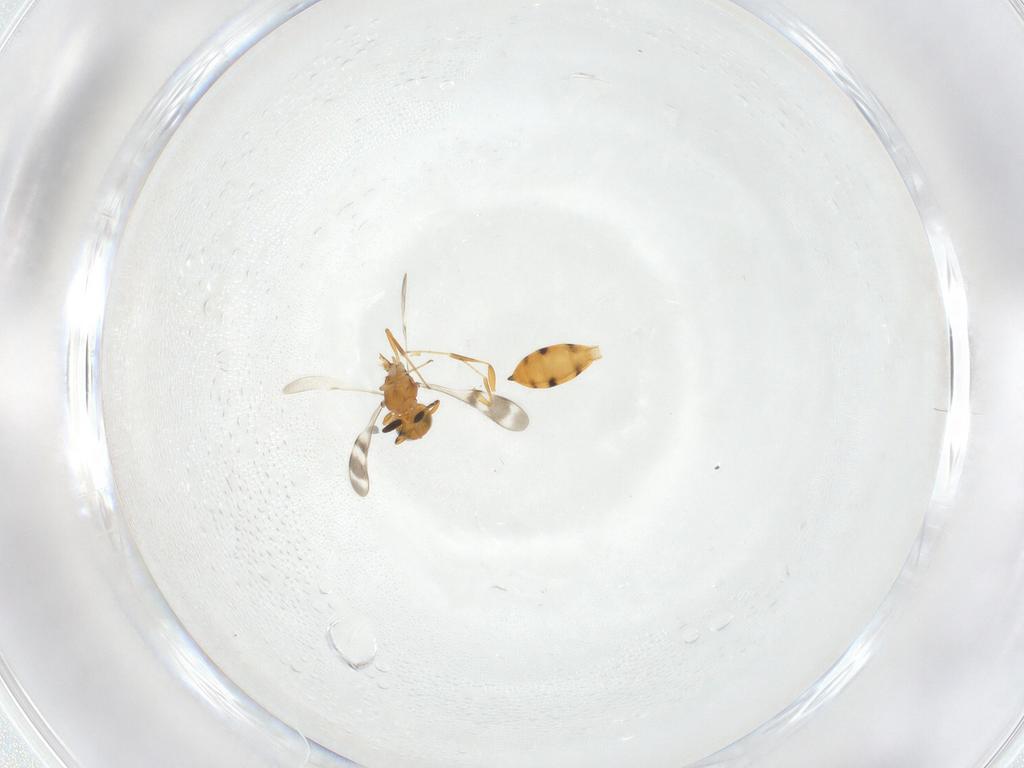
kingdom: Animalia
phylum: Arthropoda
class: Insecta
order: Hymenoptera
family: Scelionidae
